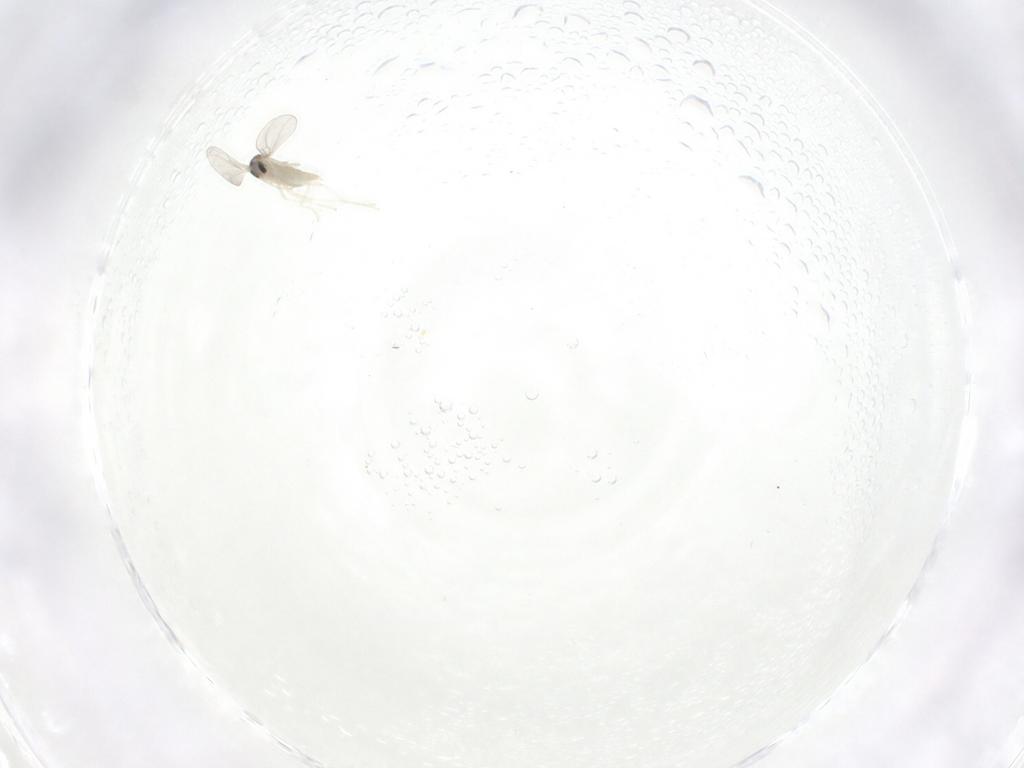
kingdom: Animalia
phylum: Arthropoda
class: Insecta
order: Diptera
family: Cecidomyiidae
